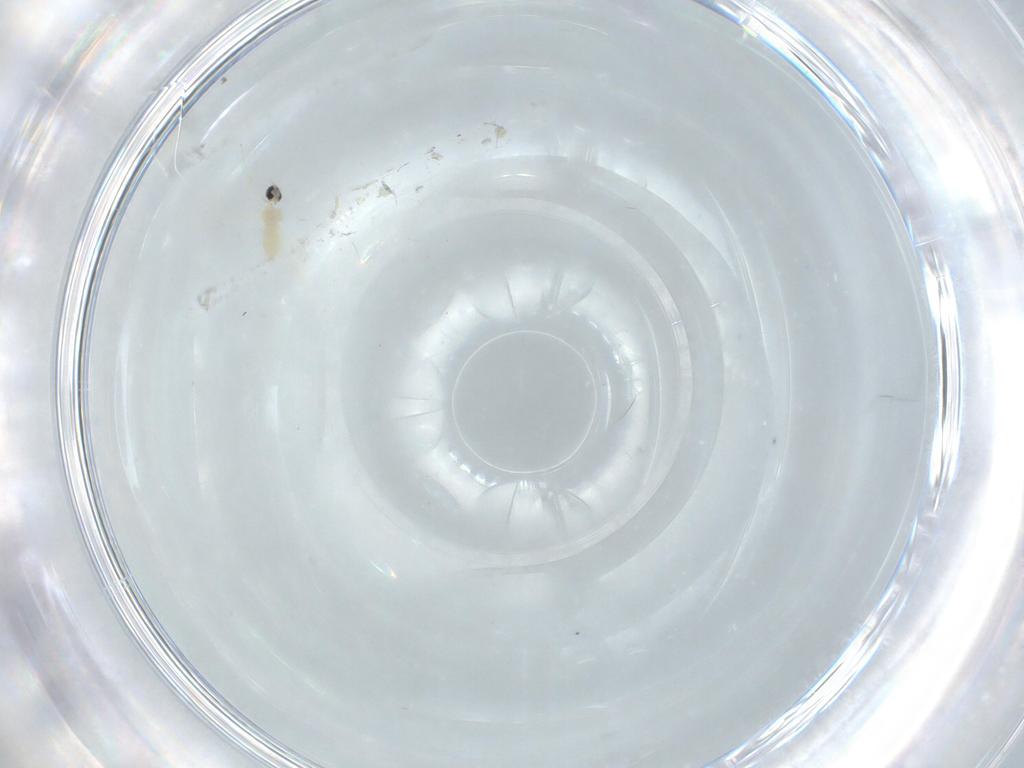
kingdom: Animalia
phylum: Arthropoda
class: Insecta
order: Diptera
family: Cecidomyiidae
